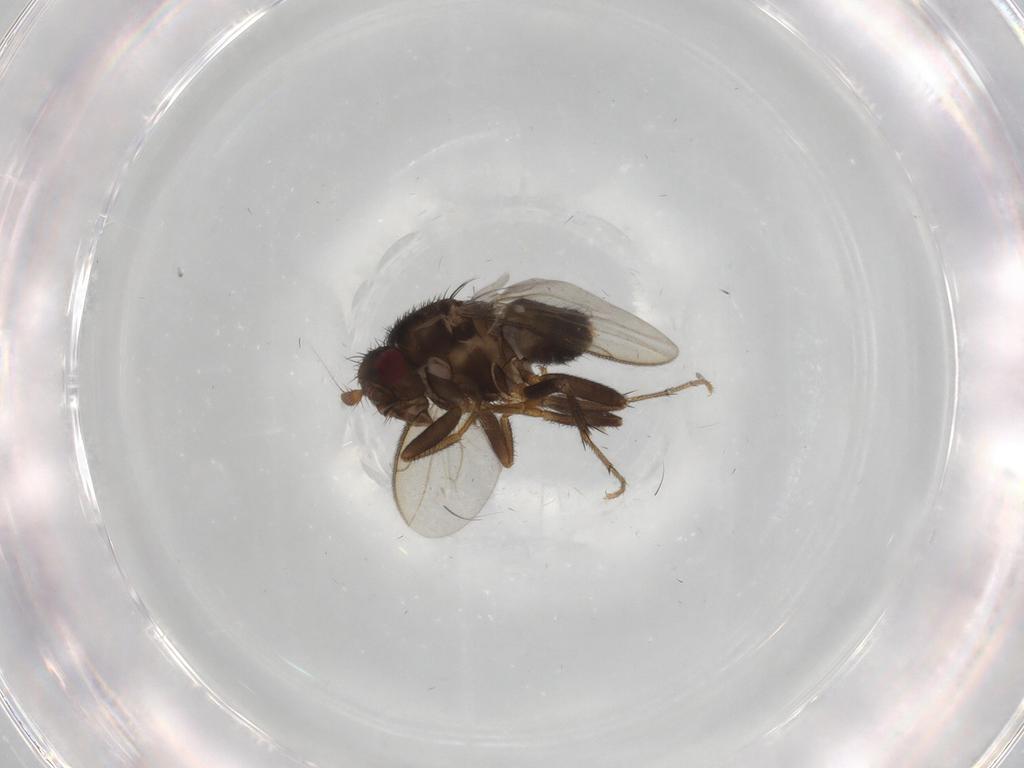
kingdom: Animalia
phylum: Arthropoda
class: Insecta
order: Diptera
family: Sphaeroceridae
